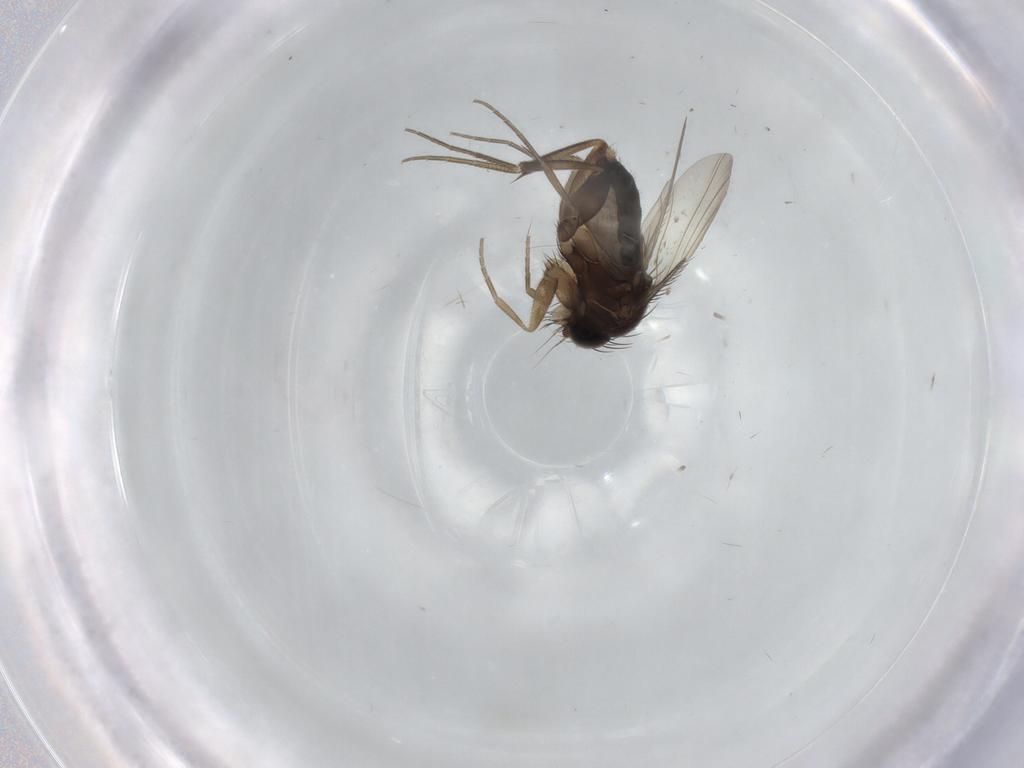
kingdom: Animalia
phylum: Arthropoda
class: Insecta
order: Diptera
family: Phoridae
